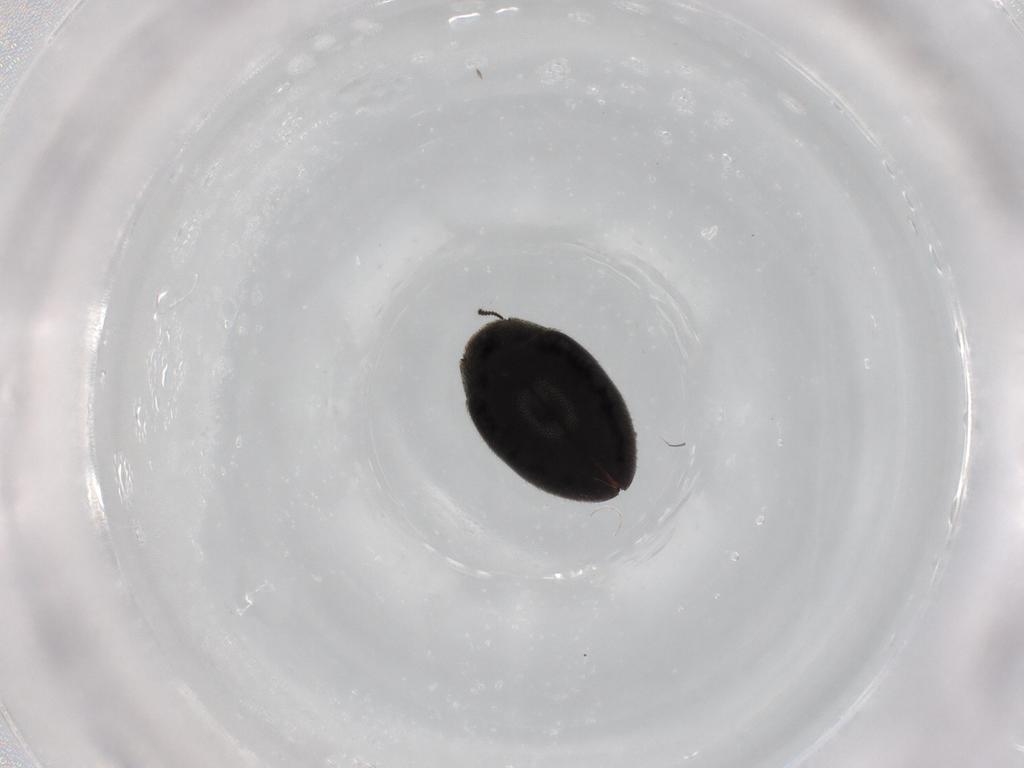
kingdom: Animalia
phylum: Arthropoda
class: Insecta
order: Coleoptera
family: Limnichidae
